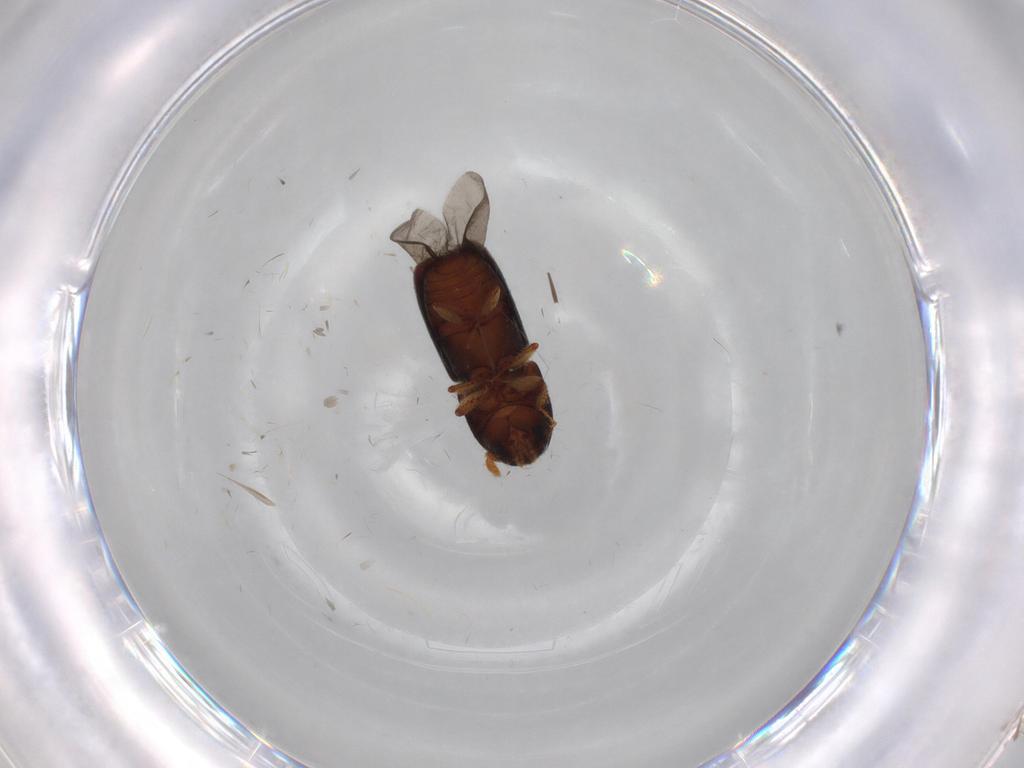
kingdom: Animalia
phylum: Arthropoda
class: Insecta
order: Coleoptera
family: Curculionidae
